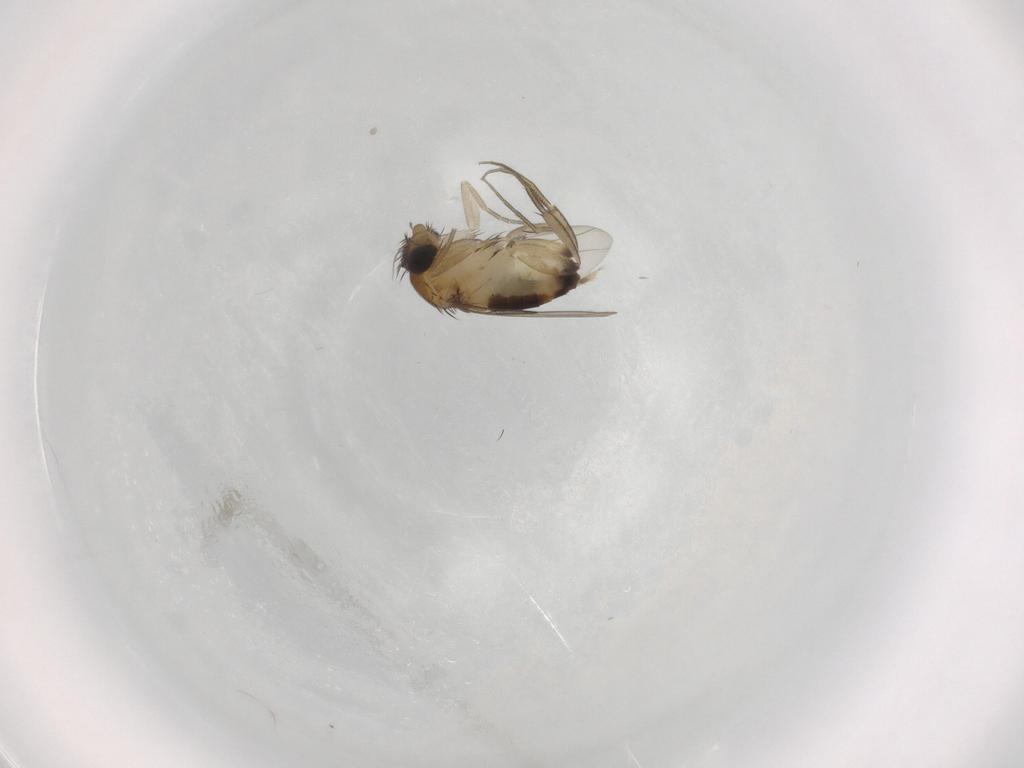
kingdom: Animalia
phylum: Arthropoda
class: Insecta
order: Diptera
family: Phoridae
